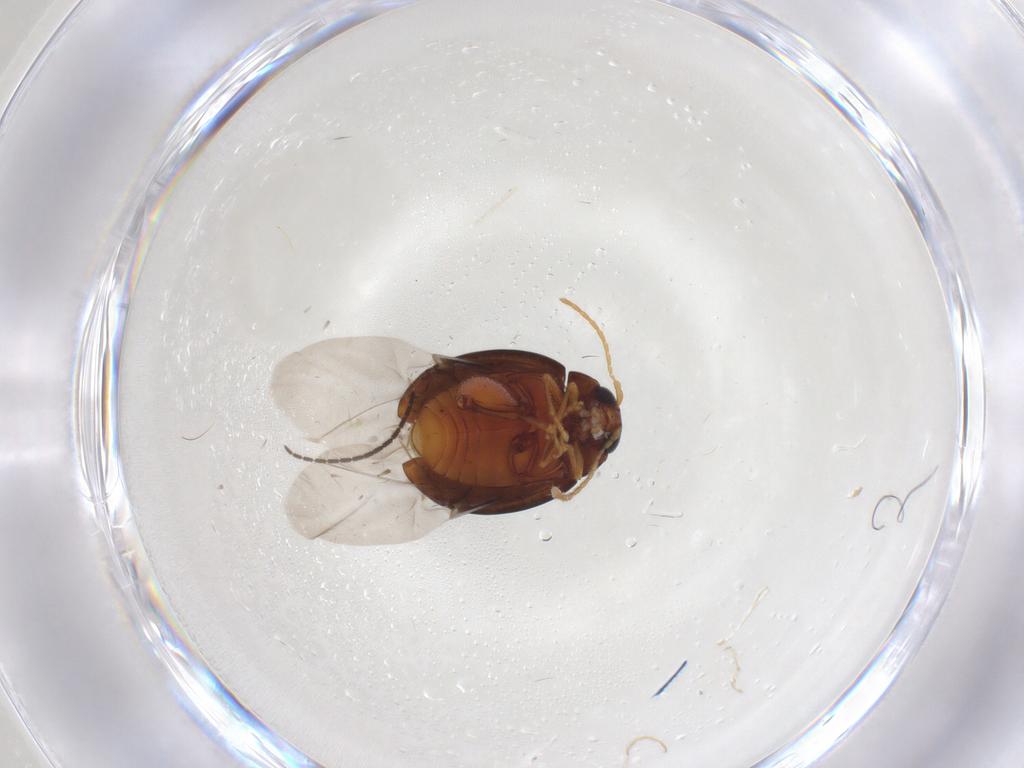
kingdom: Animalia
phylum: Arthropoda
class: Insecta
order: Coleoptera
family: Chrysomelidae
